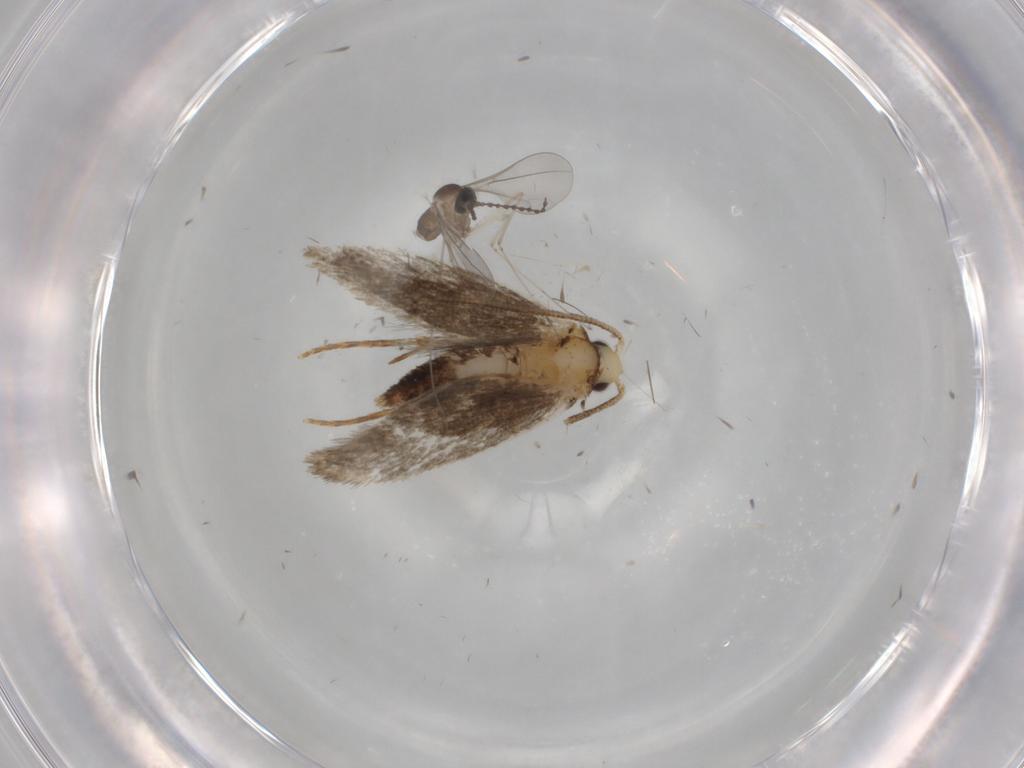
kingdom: Animalia
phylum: Arthropoda
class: Insecta
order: Lepidoptera
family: Tineidae
